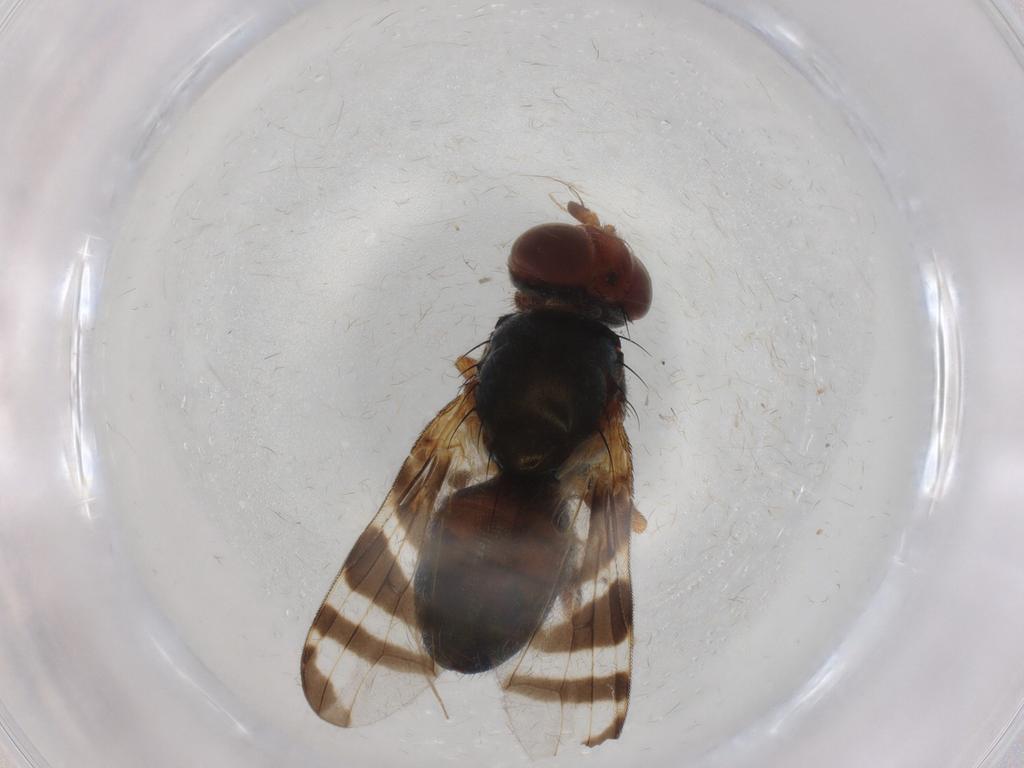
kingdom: Animalia
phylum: Arthropoda
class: Insecta
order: Diptera
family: Platystomatidae
